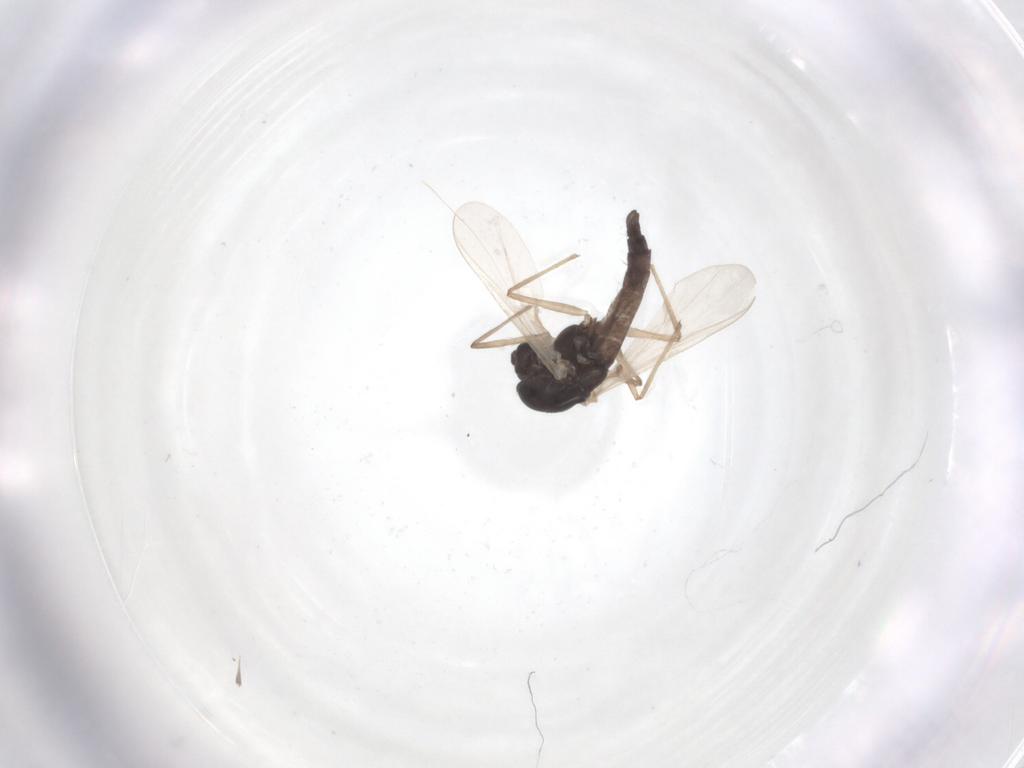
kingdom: Animalia
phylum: Arthropoda
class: Insecta
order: Diptera
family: Chironomidae
